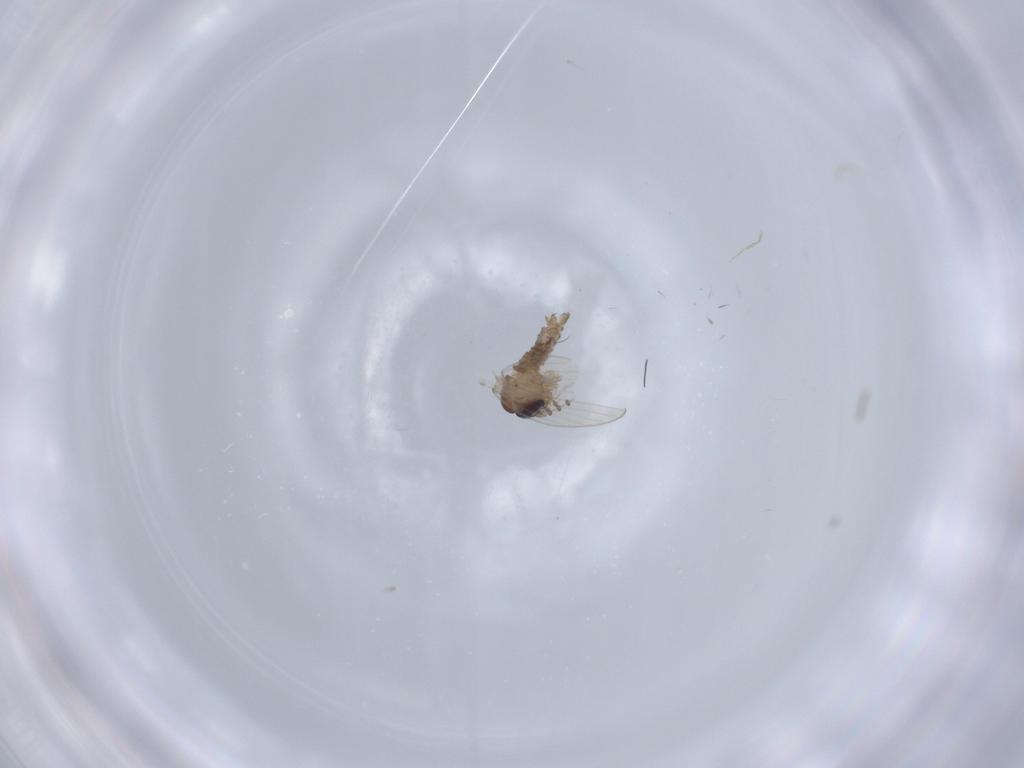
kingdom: Animalia
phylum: Arthropoda
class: Insecta
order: Diptera
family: Psychodidae
